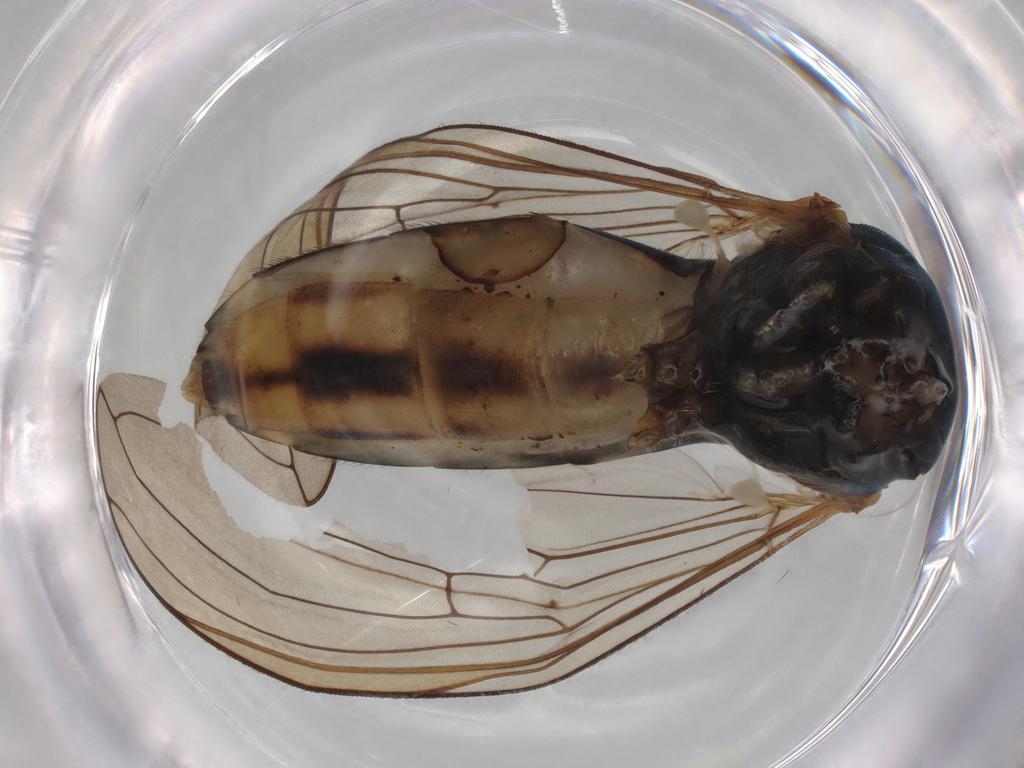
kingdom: Animalia
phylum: Arthropoda
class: Insecta
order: Diptera
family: Syrphidae
